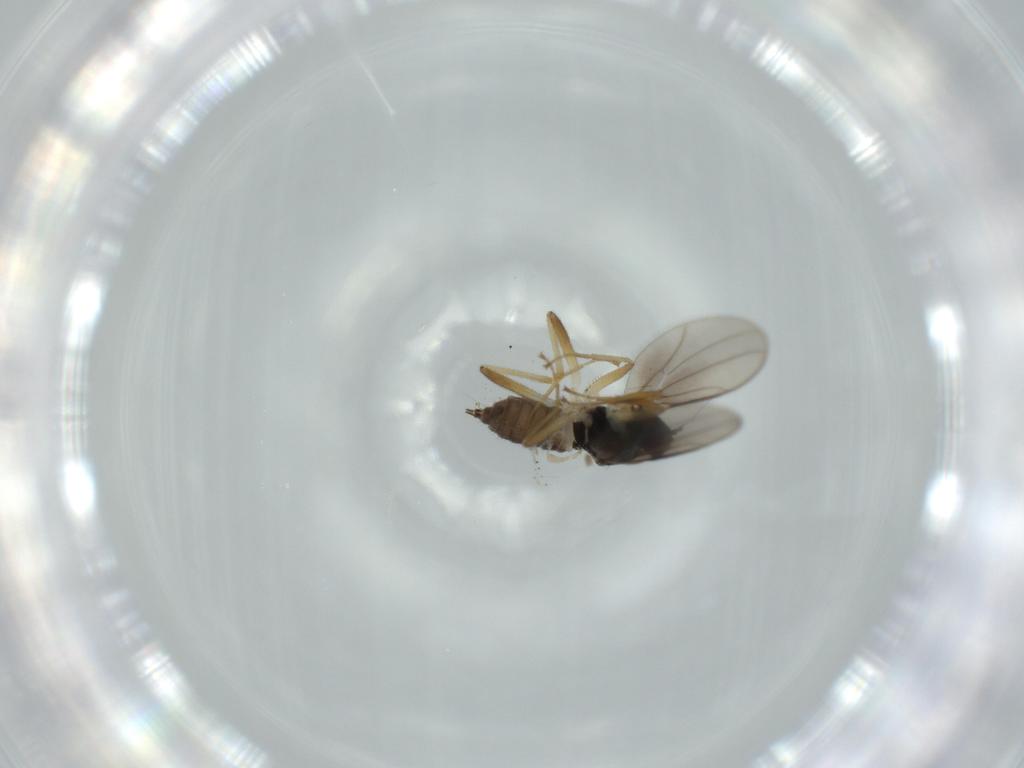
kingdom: Animalia
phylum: Arthropoda
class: Insecta
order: Diptera
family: Hybotidae
